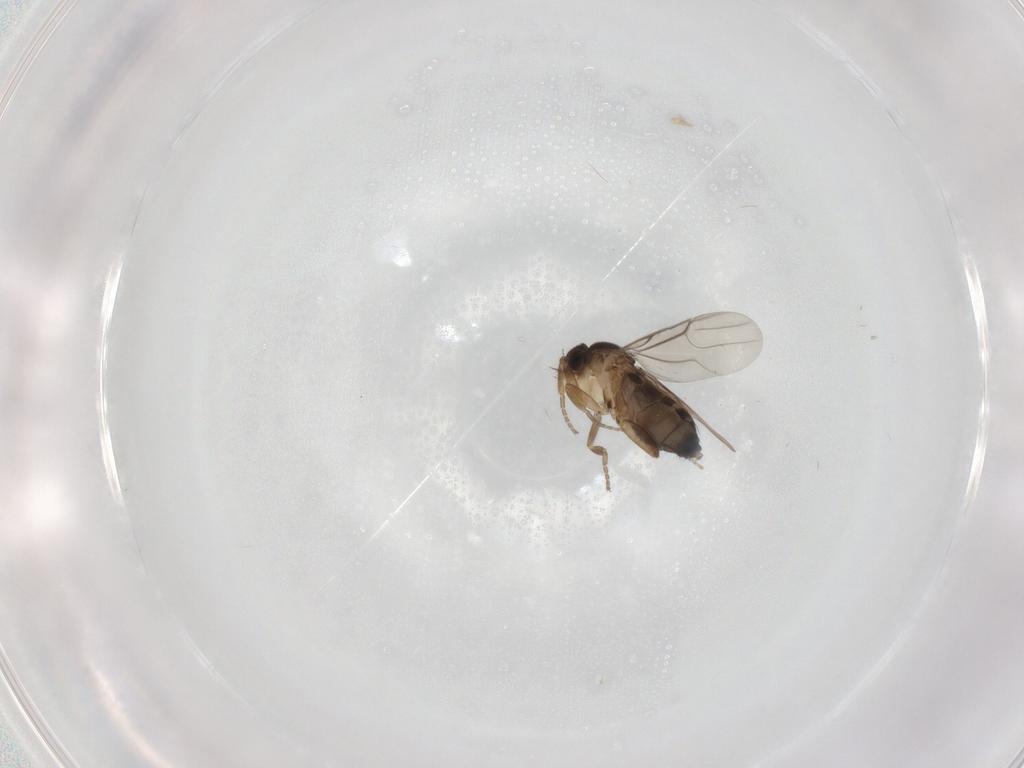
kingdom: Animalia
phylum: Arthropoda
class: Insecta
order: Diptera
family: Phoridae
